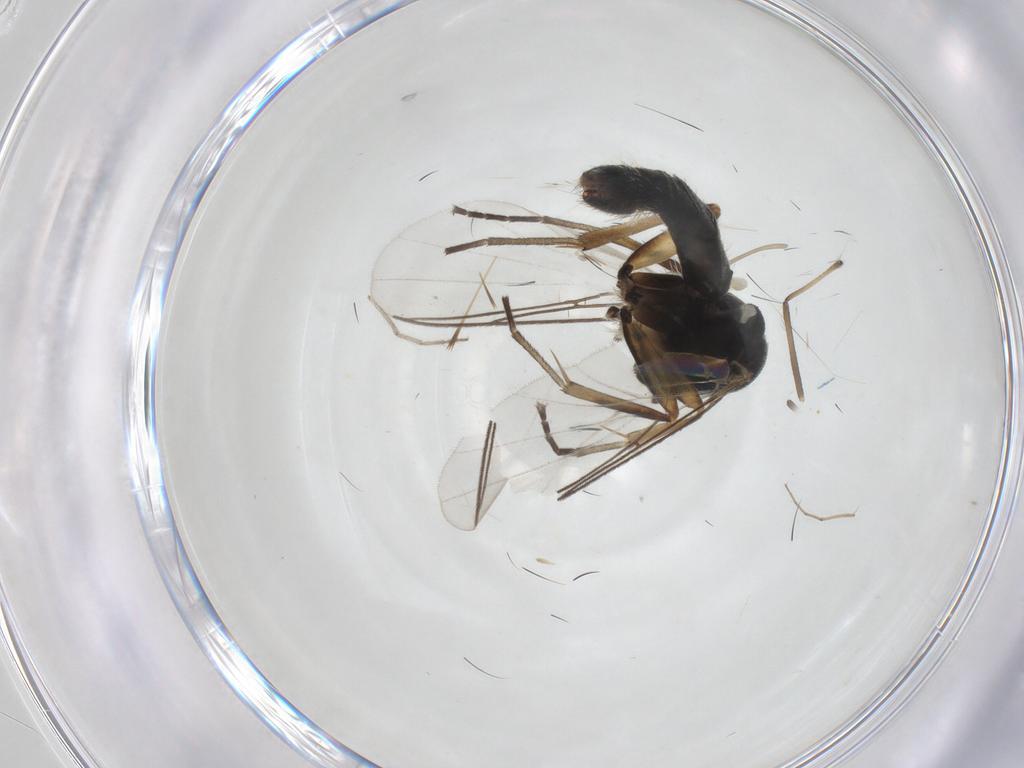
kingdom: Animalia
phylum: Arthropoda
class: Insecta
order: Diptera
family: Cecidomyiidae
